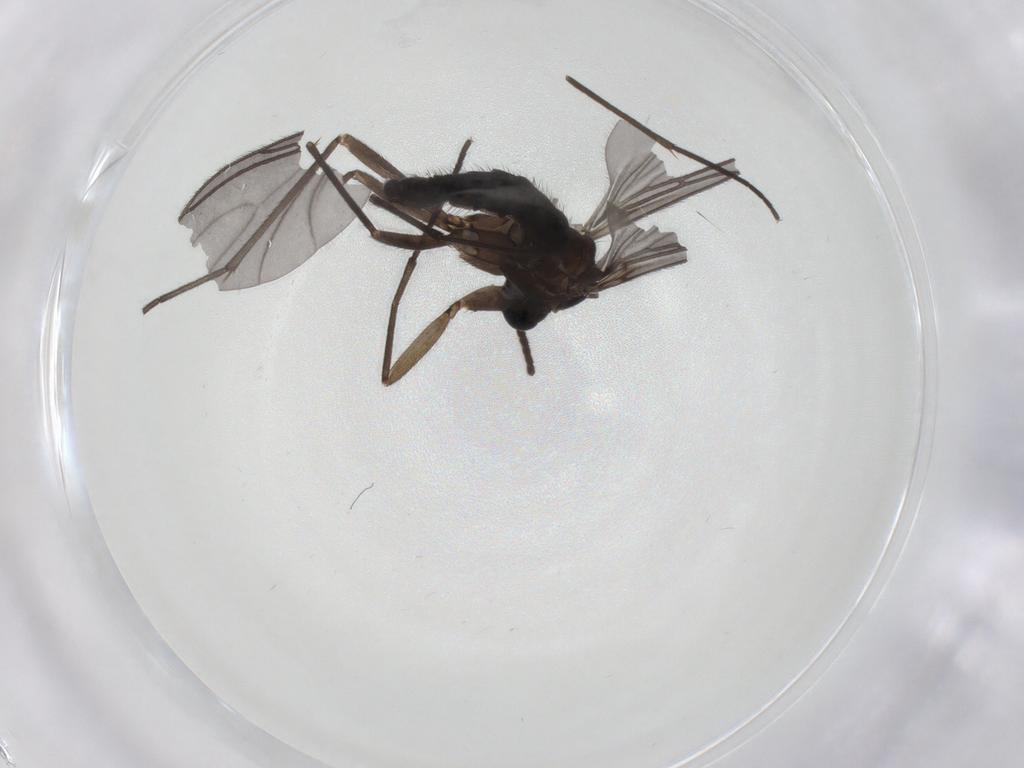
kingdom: Animalia
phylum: Arthropoda
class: Insecta
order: Diptera
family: Sciaridae
